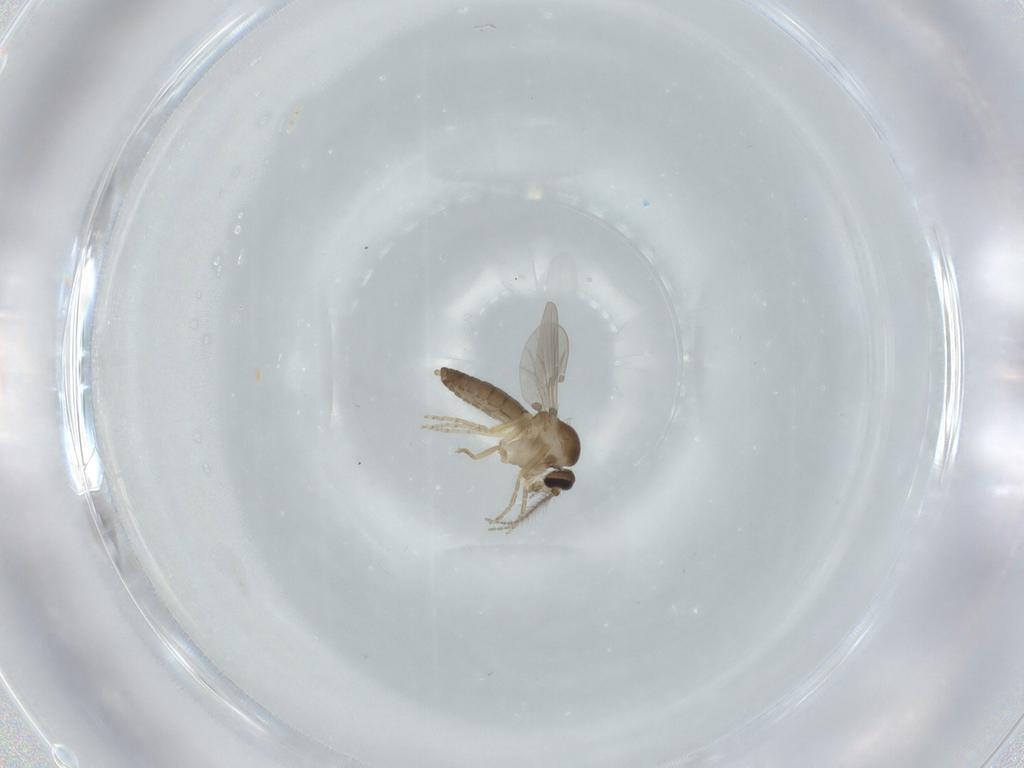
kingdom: Animalia
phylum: Arthropoda
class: Insecta
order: Diptera
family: Ceratopogonidae
